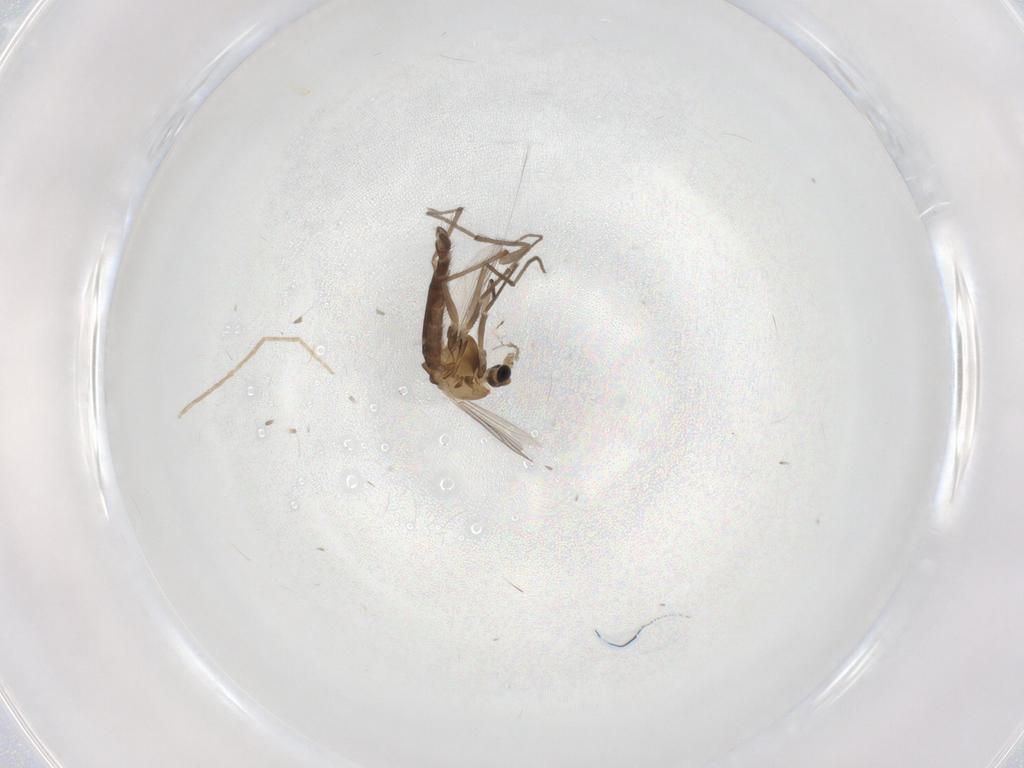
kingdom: Animalia
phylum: Arthropoda
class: Insecta
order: Diptera
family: Chironomidae
